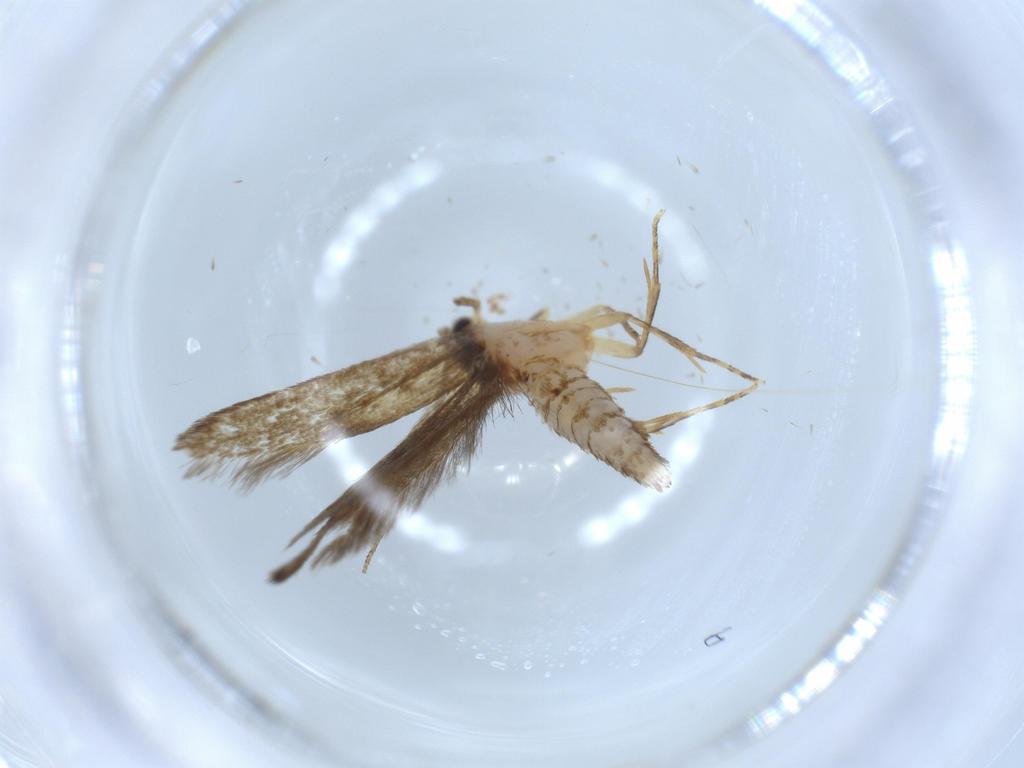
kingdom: Animalia
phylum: Arthropoda
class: Insecta
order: Lepidoptera
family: Tineidae
